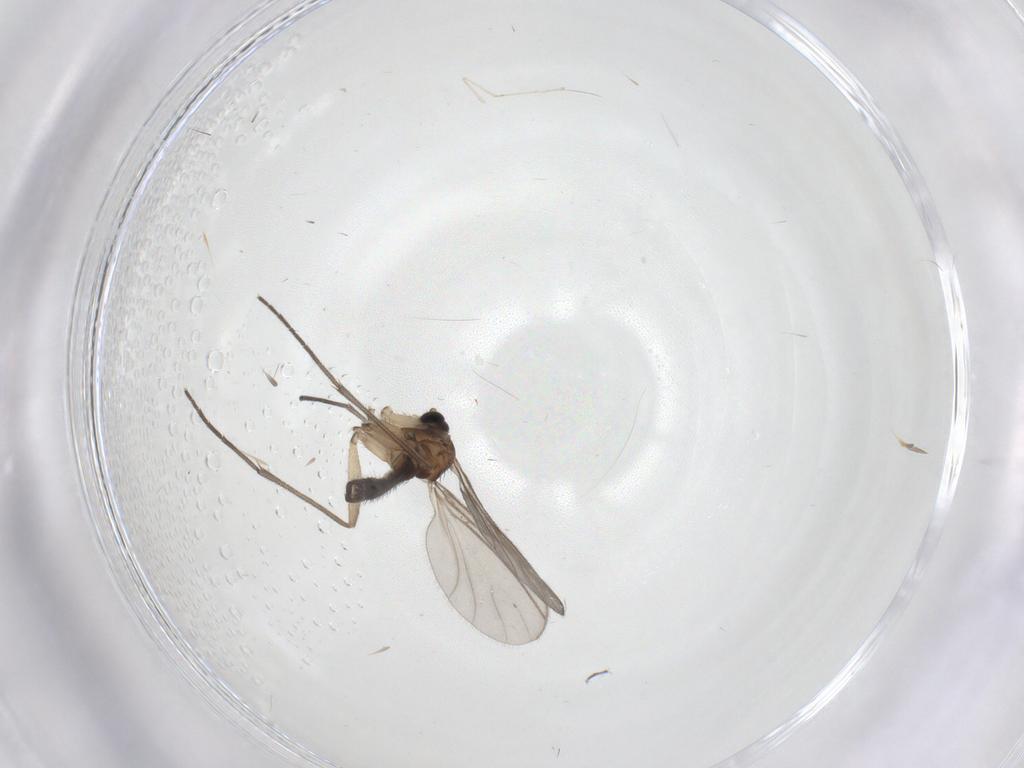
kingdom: Animalia
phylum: Arthropoda
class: Insecta
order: Diptera
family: Sciaridae
